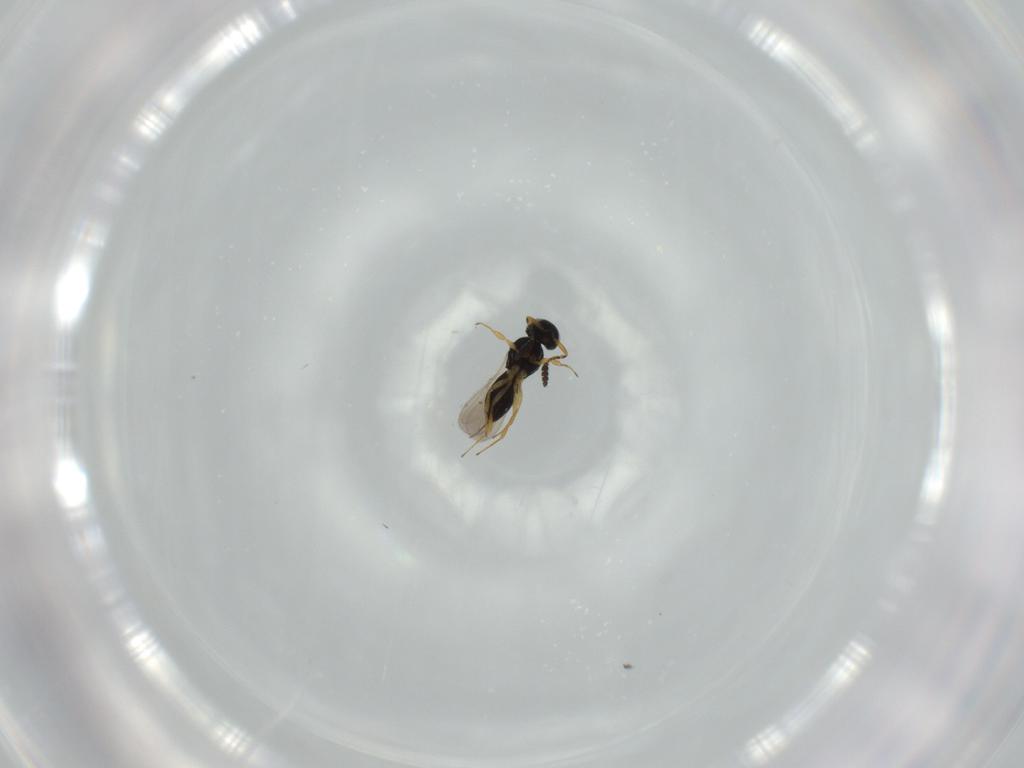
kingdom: Animalia
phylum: Arthropoda
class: Insecta
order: Hymenoptera
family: Scelionidae
